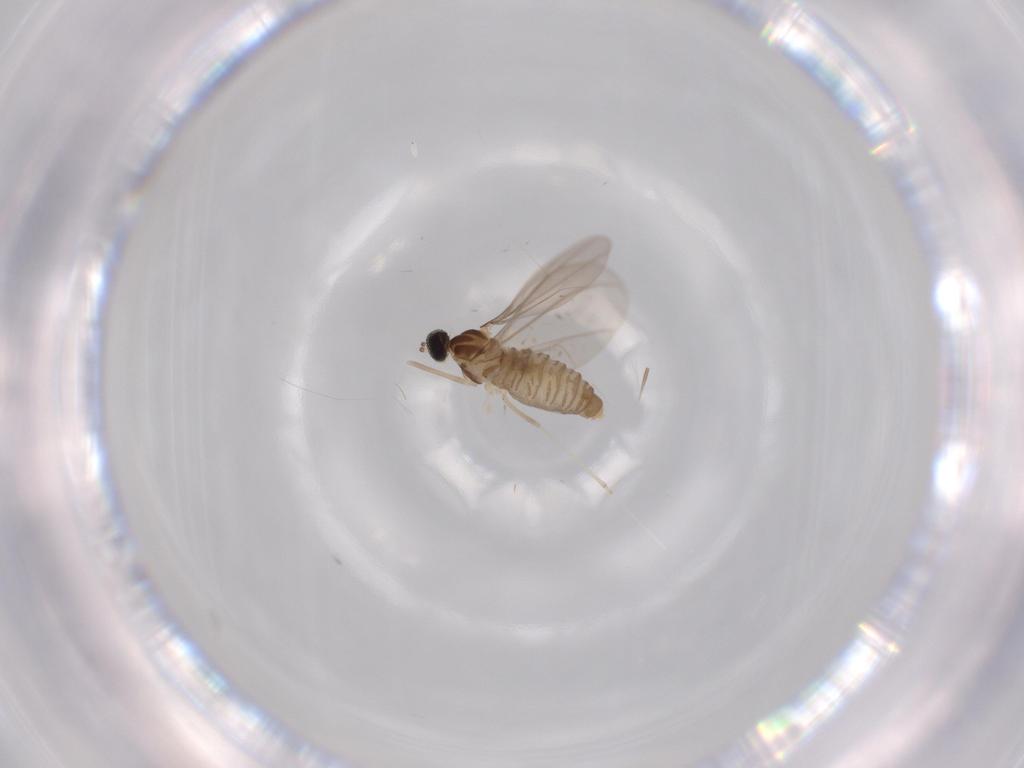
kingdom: Animalia
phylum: Arthropoda
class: Insecta
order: Diptera
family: Cecidomyiidae
